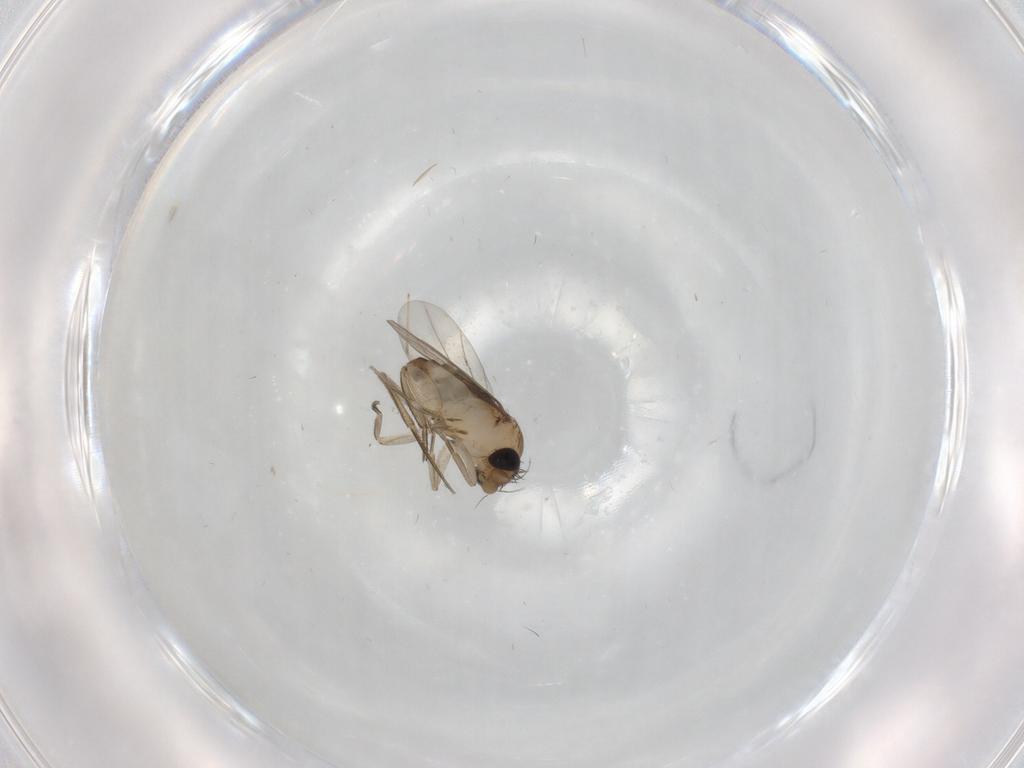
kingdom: Animalia
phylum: Arthropoda
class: Insecta
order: Diptera
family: Phoridae
